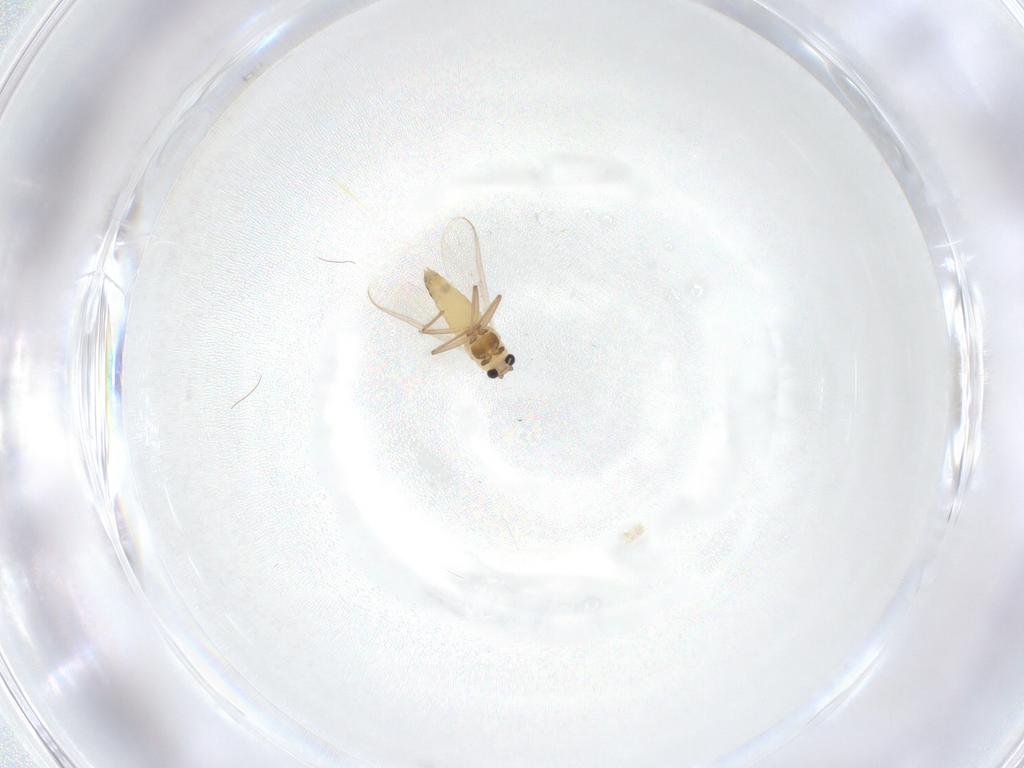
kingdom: Animalia
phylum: Arthropoda
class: Insecta
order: Diptera
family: Chironomidae
